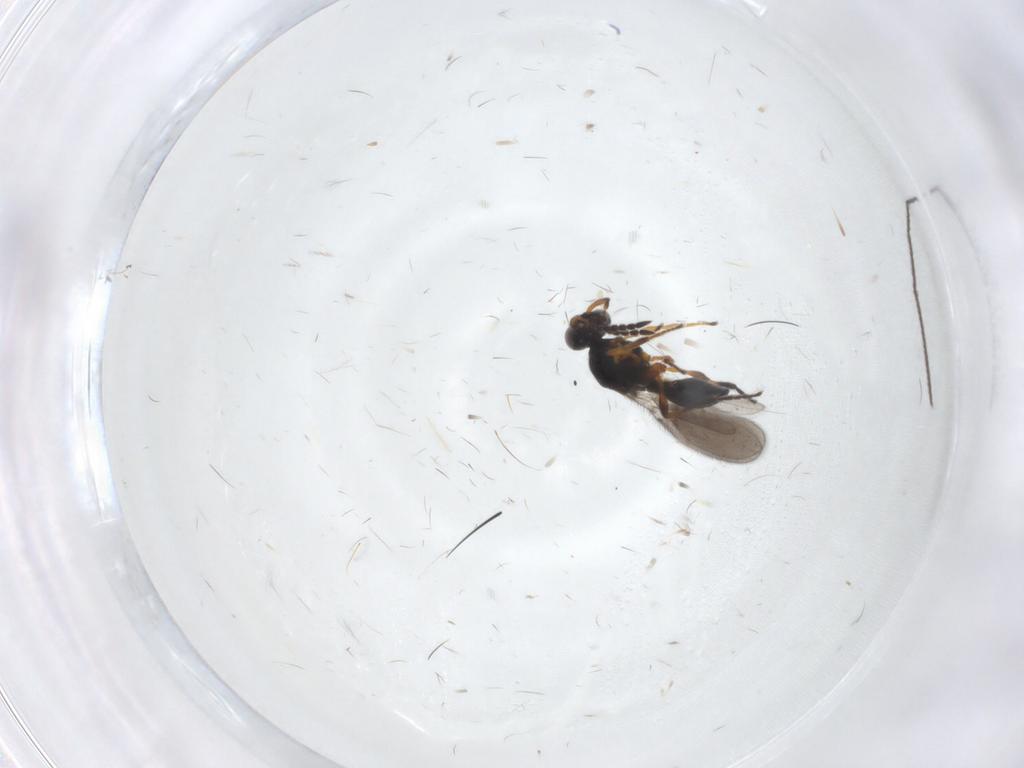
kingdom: Animalia
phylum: Arthropoda
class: Insecta
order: Hymenoptera
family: Platygastridae
